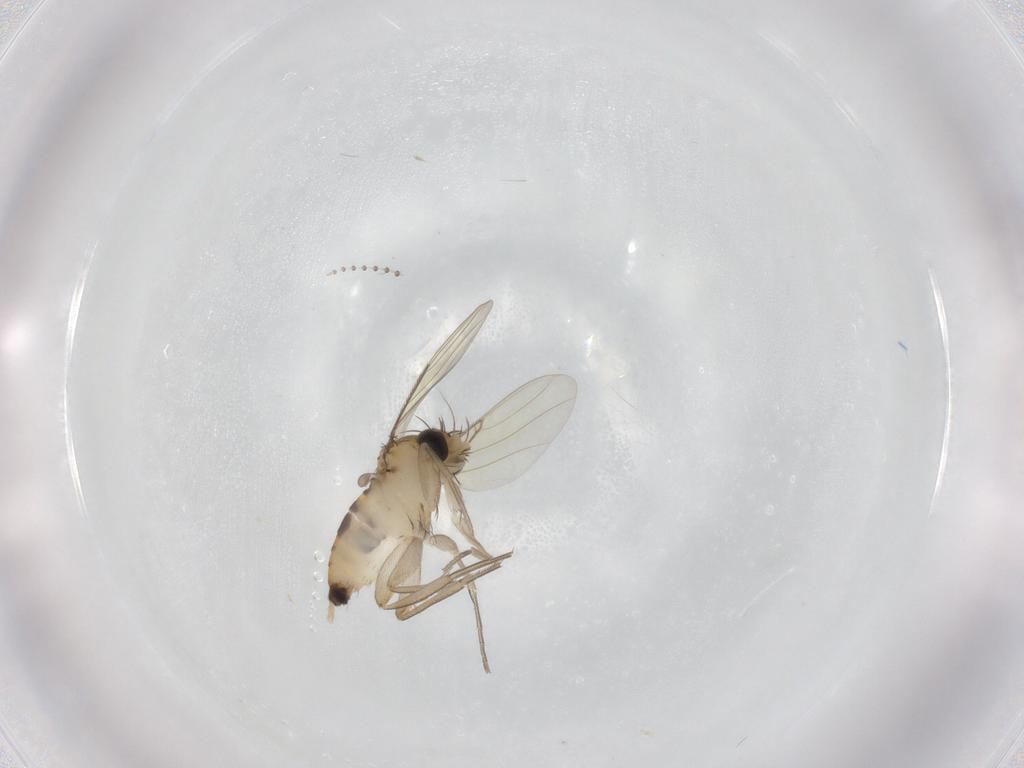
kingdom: Animalia
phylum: Arthropoda
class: Insecta
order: Diptera
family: Phoridae
